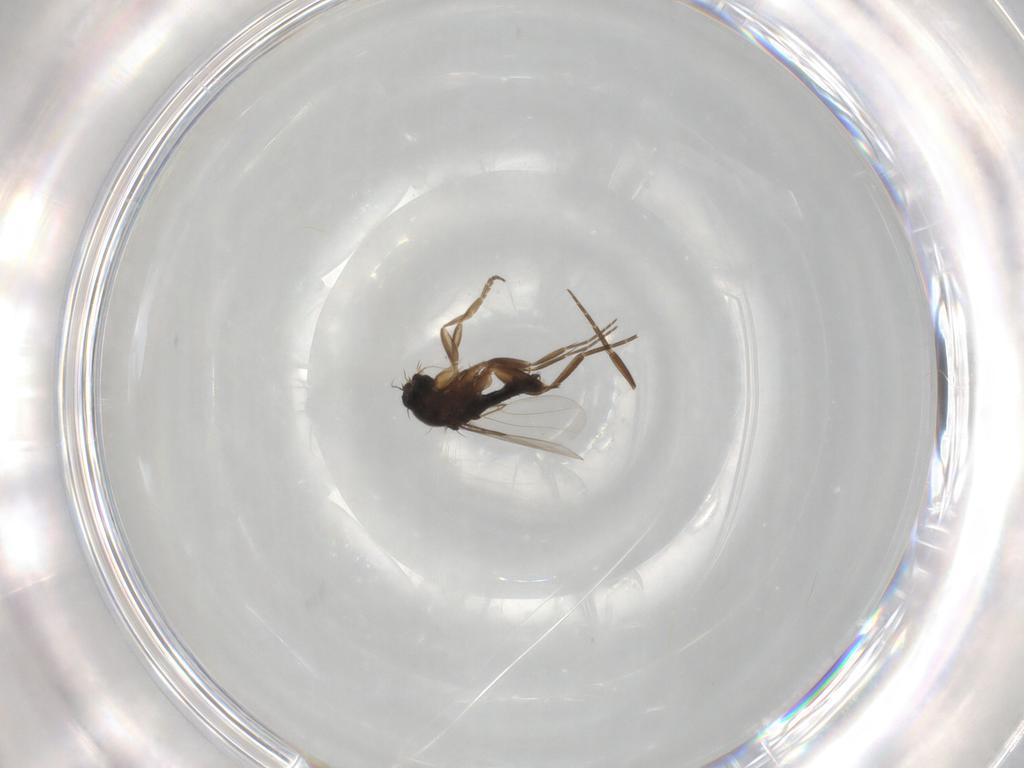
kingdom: Animalia
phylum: Arthropoda
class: Insecta
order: Diptera
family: Phoridae
